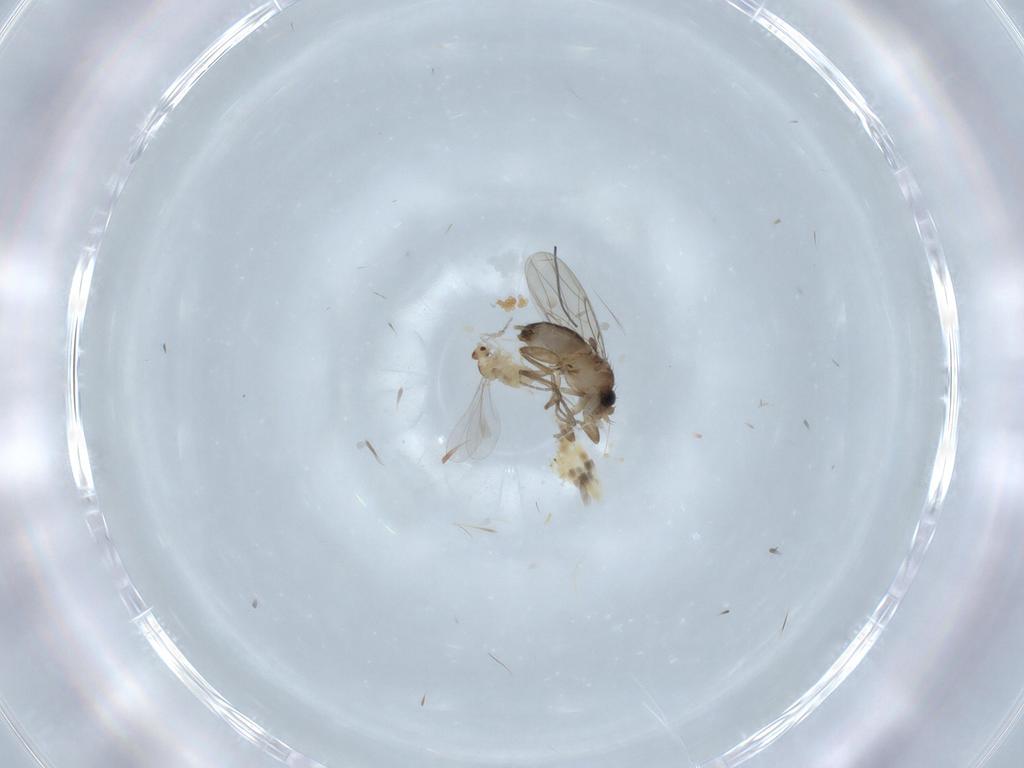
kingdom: Animalia
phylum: Arthropoda
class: Insecta
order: Diptera
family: Phoridae
